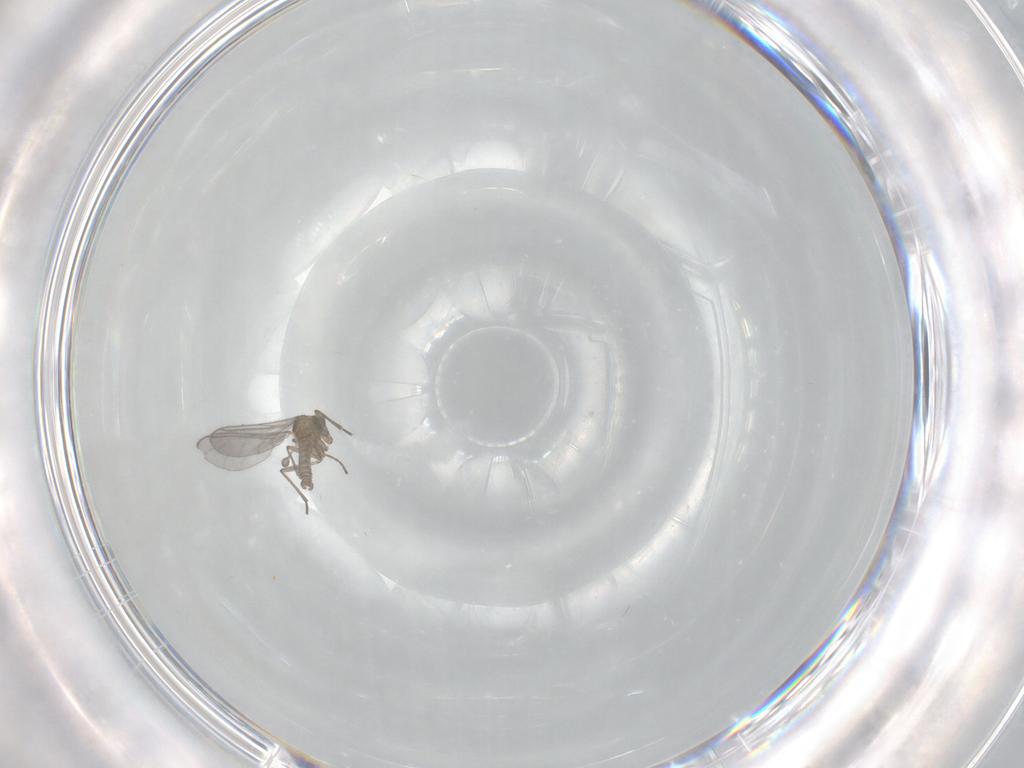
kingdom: Animalia
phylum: Arthropoda
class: Insecta
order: Diptera
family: Sciaridae
